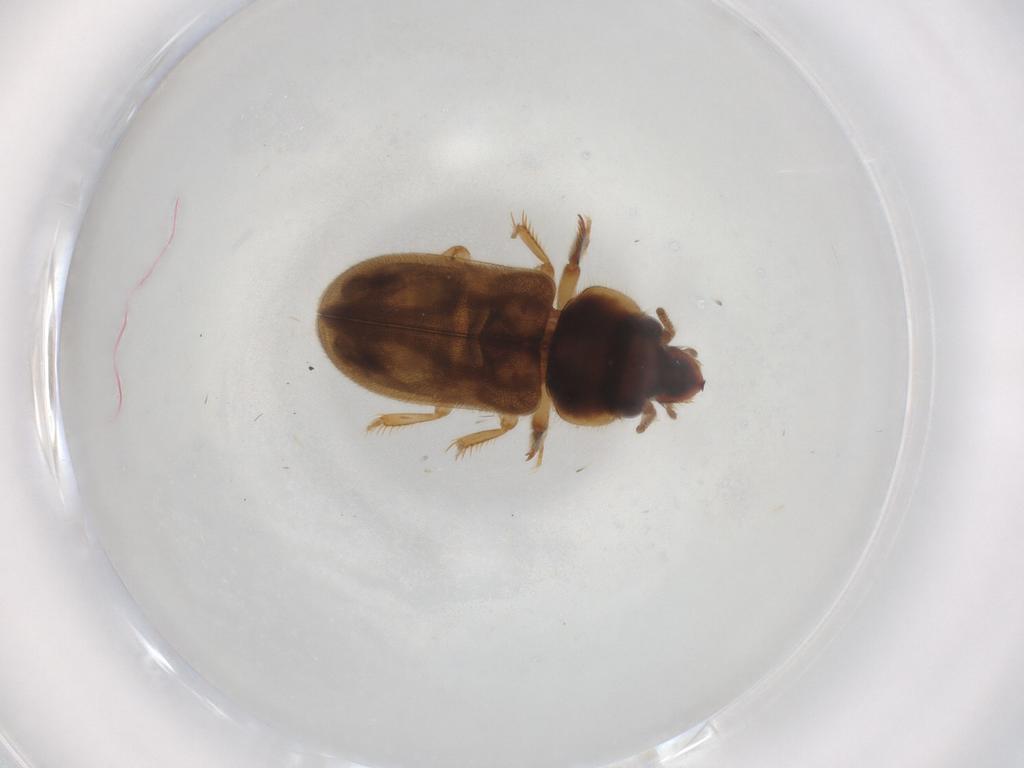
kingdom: Animalia
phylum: Arthropoda
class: Insecta
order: Coleoptera
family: Heteroceridae
